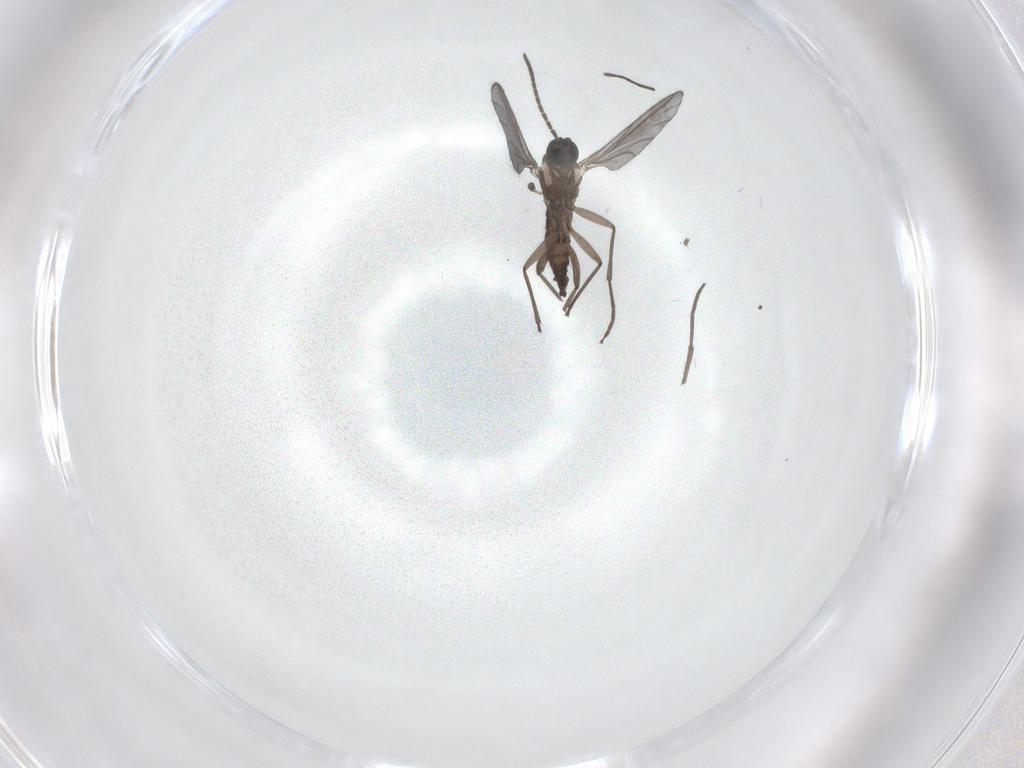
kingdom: Animalia
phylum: Arthropoda
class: Insecta
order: Diptera
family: Sciaridae
